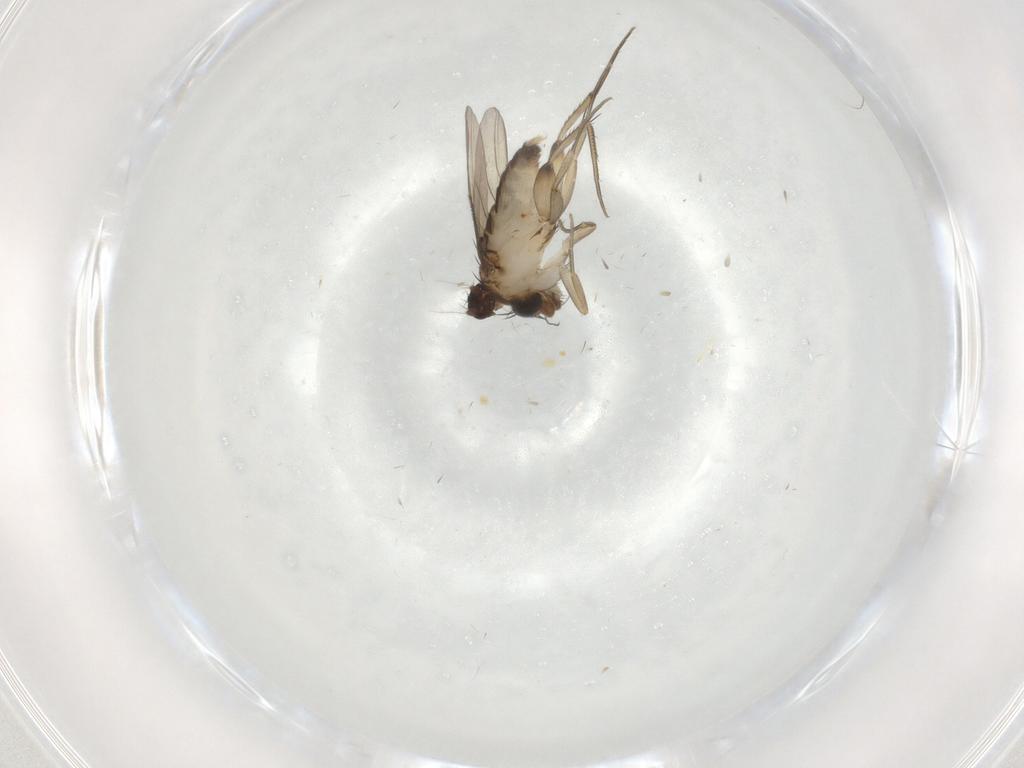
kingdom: Animalia
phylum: Arthropoda
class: Insecta
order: Diptera
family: Phoridae
